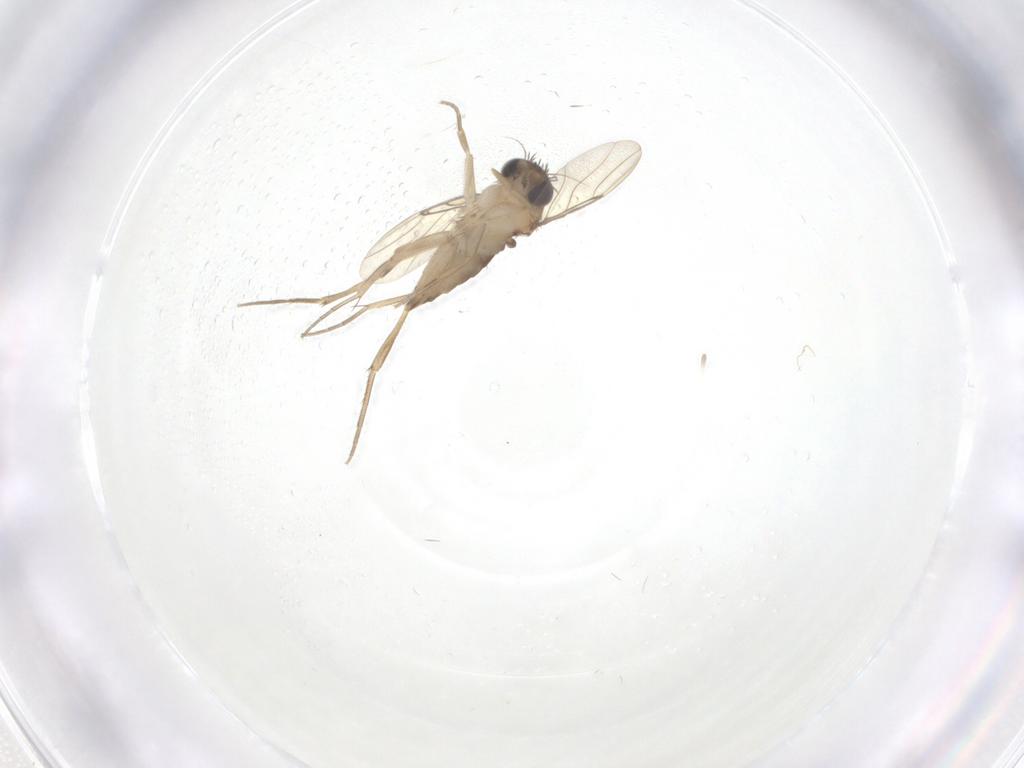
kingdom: Animalia
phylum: Arthropoda
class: Insecta
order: Diptera
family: Phoridae
